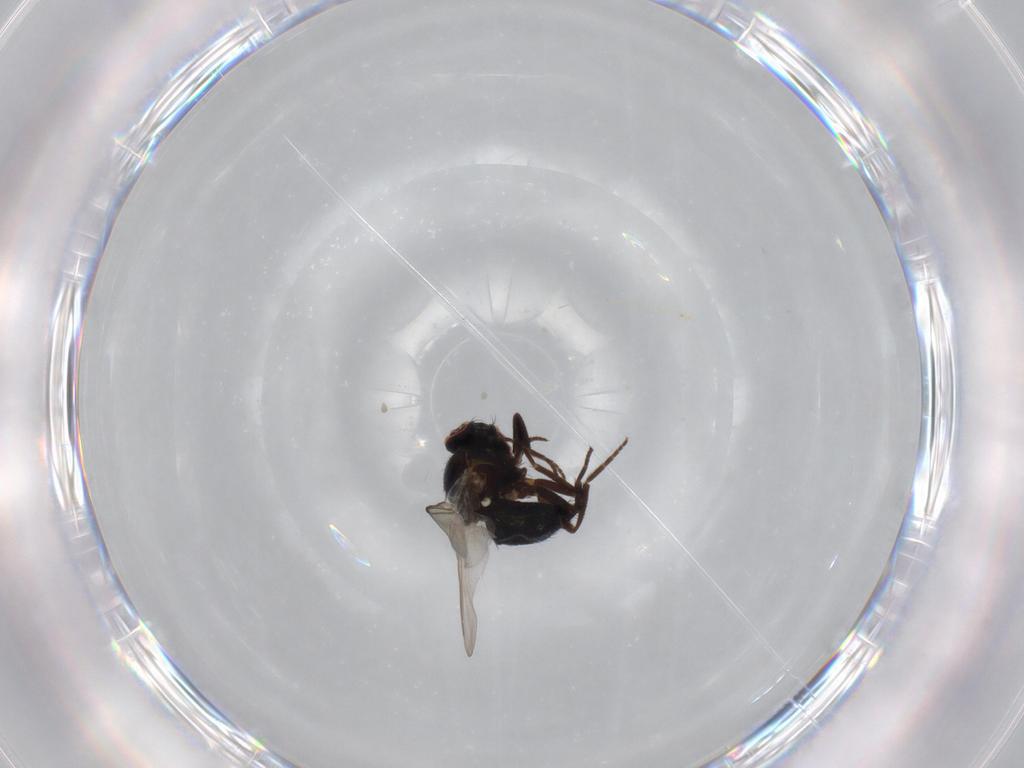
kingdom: Animalia
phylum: Arthropoda
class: Insecta
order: Diptera
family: Agromyzidae
